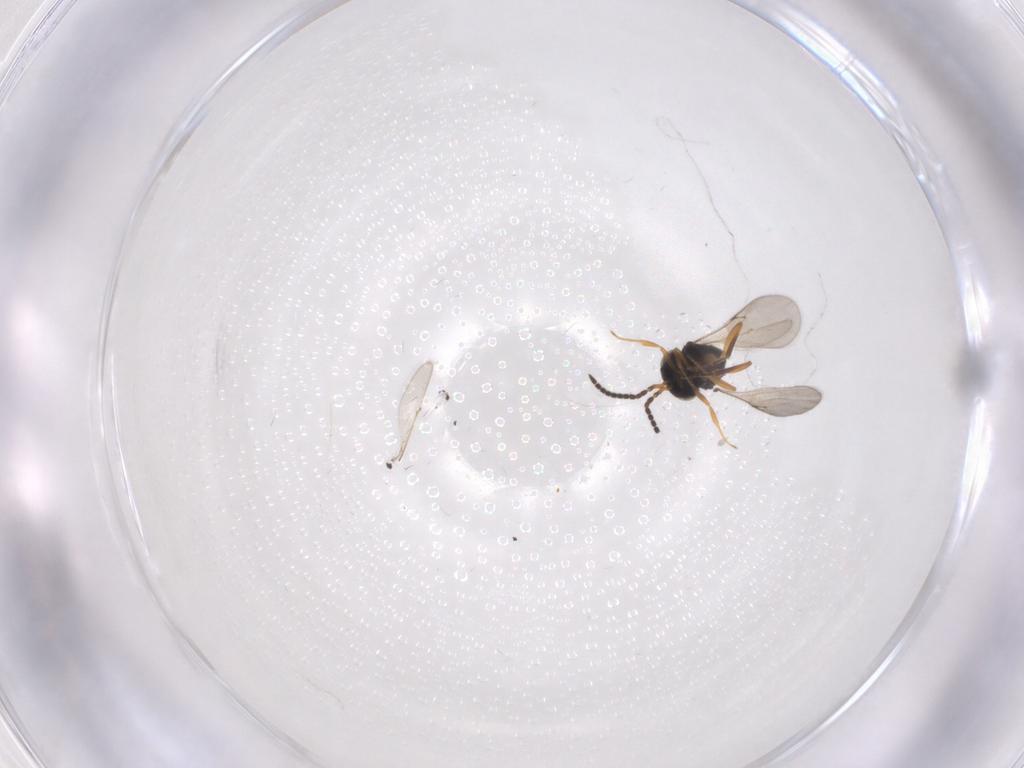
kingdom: Animalia
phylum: Arthropoda
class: Insecta
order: Hymenoptera
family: Scelionidae
